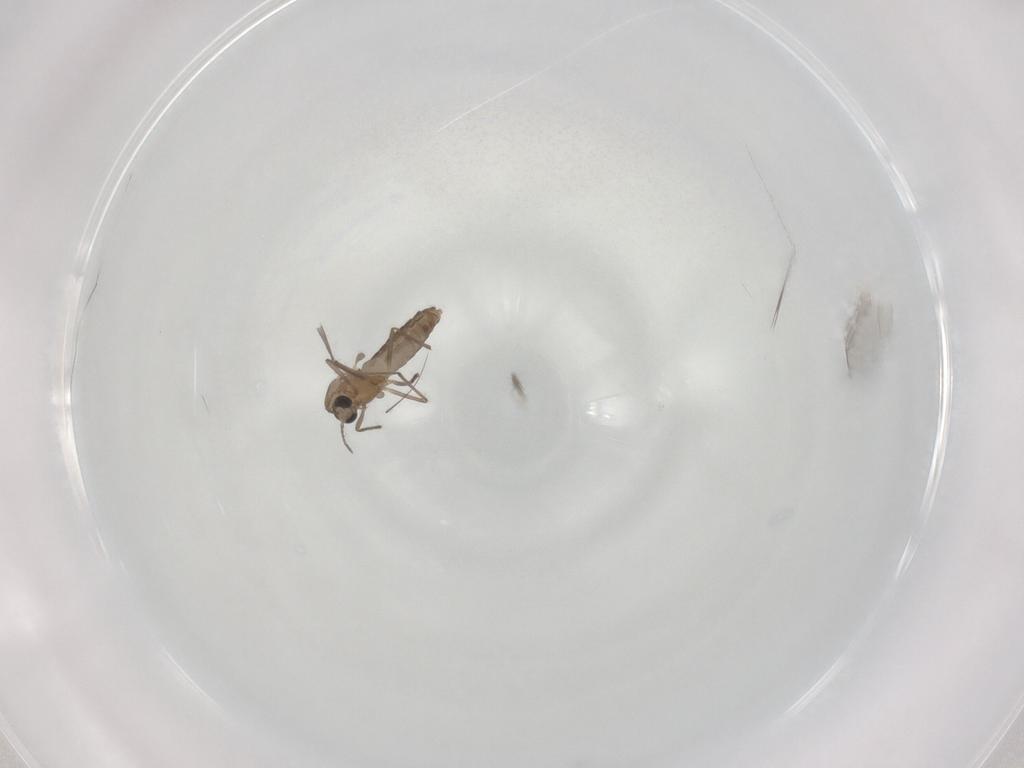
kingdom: Animalia
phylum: Arthropoda
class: Insecta
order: Diptera
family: Chironomidae
